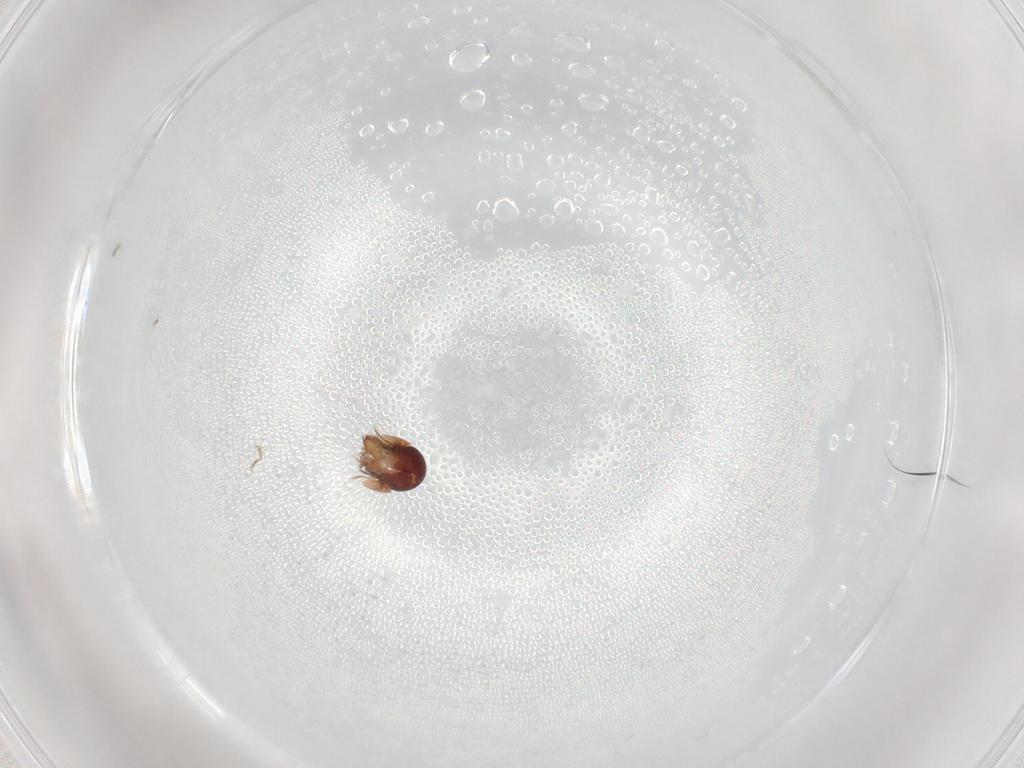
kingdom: Animalia
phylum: Arthropoda
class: Arachnida
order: Sarcoptiformes
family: Galumnidae
